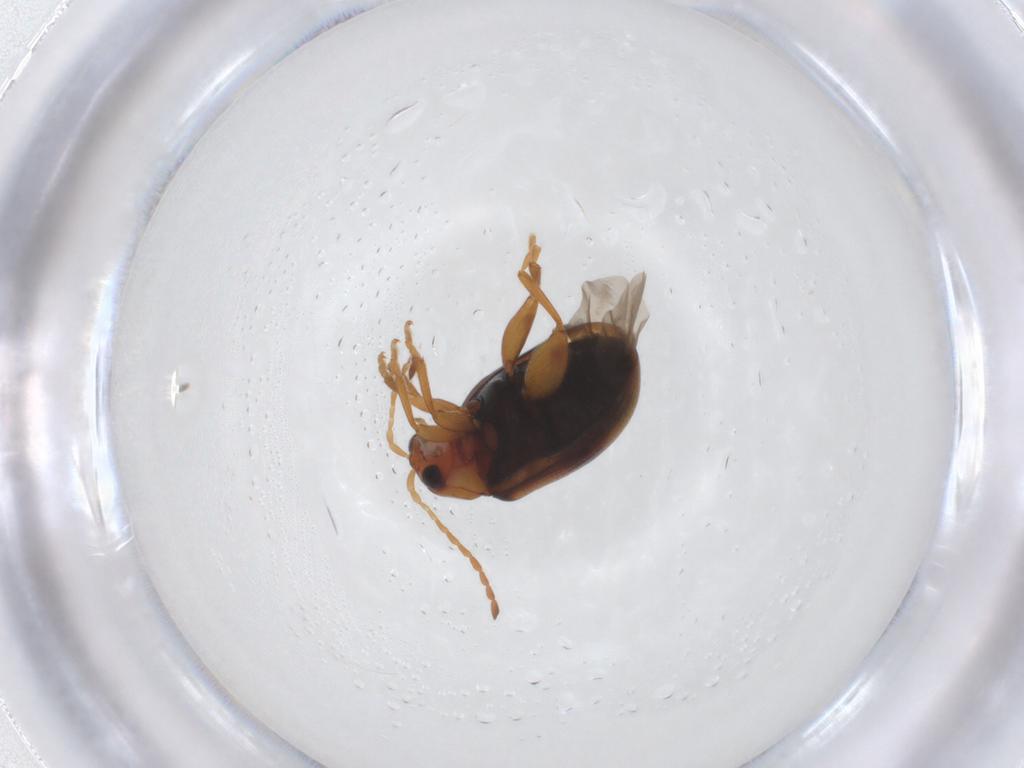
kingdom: Animalia
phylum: Arthropoda
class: Insecta
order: Coleoptera
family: Chrysomelidae
